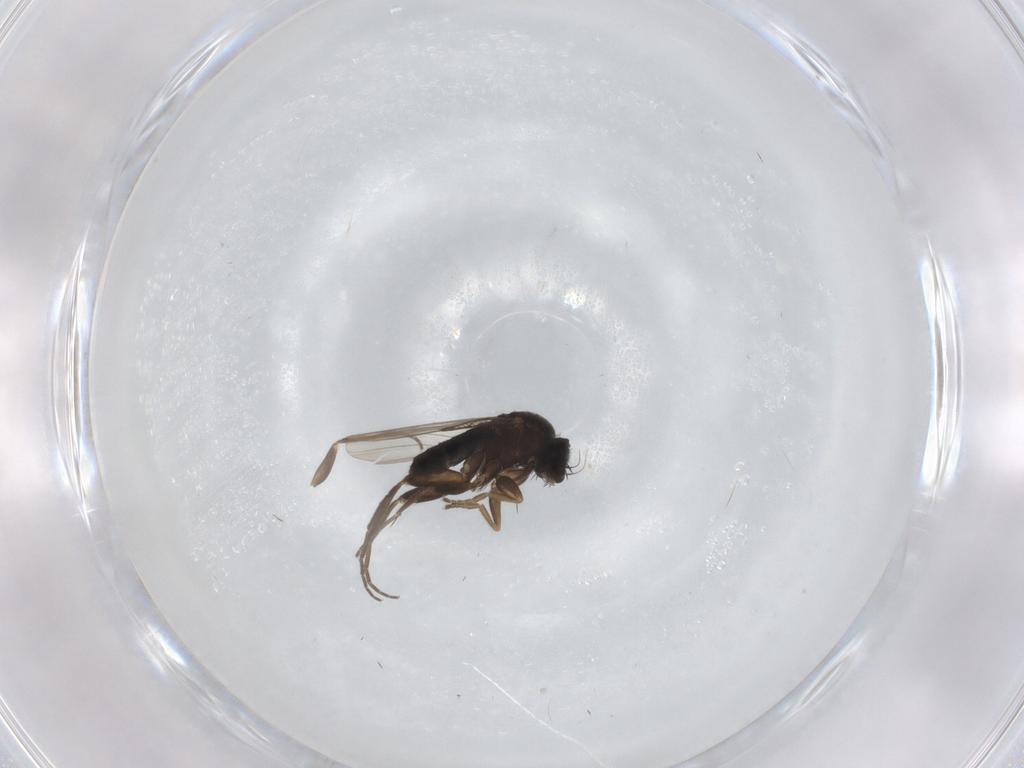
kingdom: Animalia
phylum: Arthropoda
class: Insecta
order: Diptera
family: Phoridae
